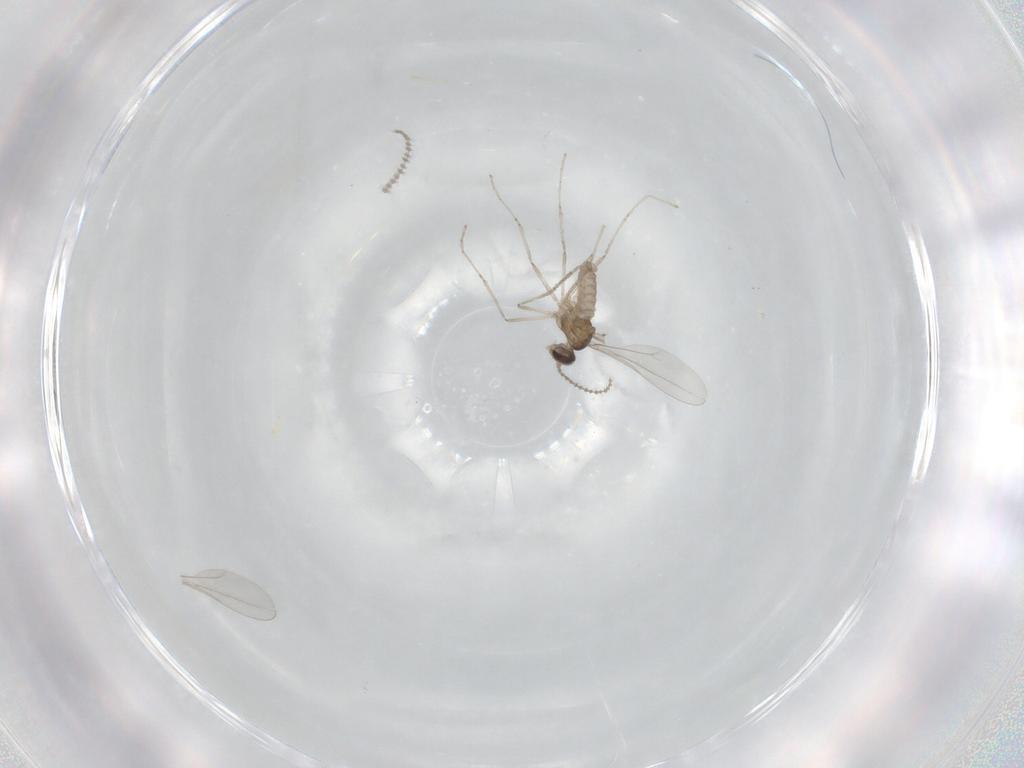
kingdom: Animalia
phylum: Arthropoda
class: Insecta
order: Diptera
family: Cecidomyiidae
